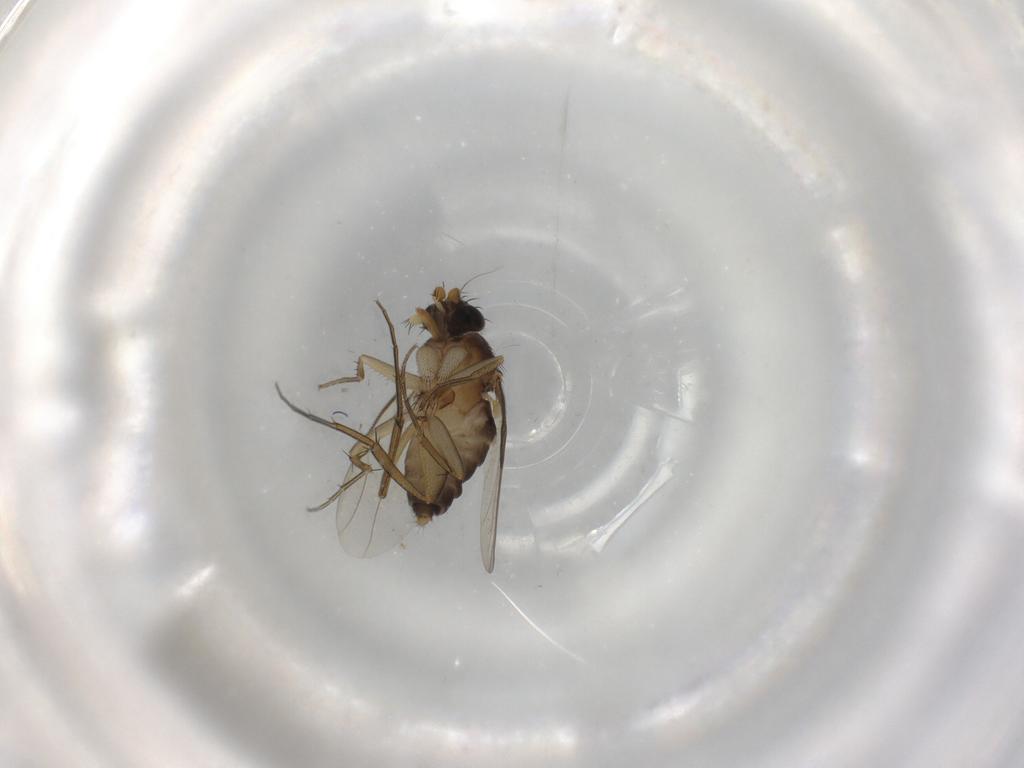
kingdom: Animalia
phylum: Arthropoda
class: Insecta
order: Diptera
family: Phoridae
